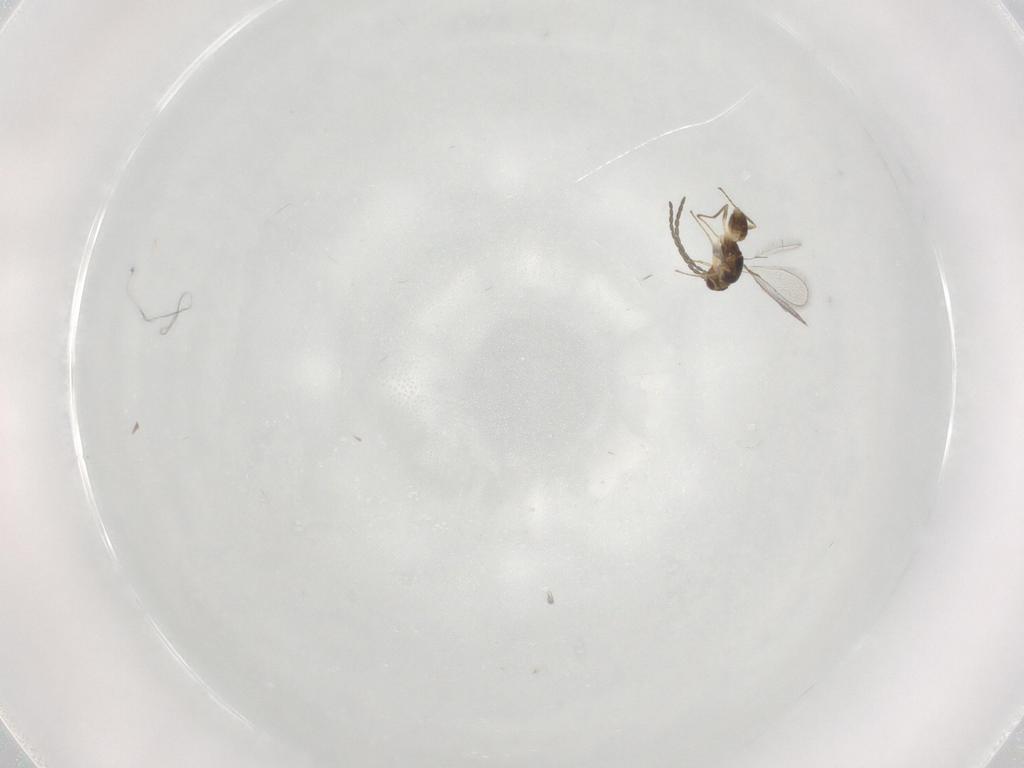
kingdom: Animalia
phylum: Arthropoda
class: Insecta
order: Hymenoptera
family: Mymaridae
